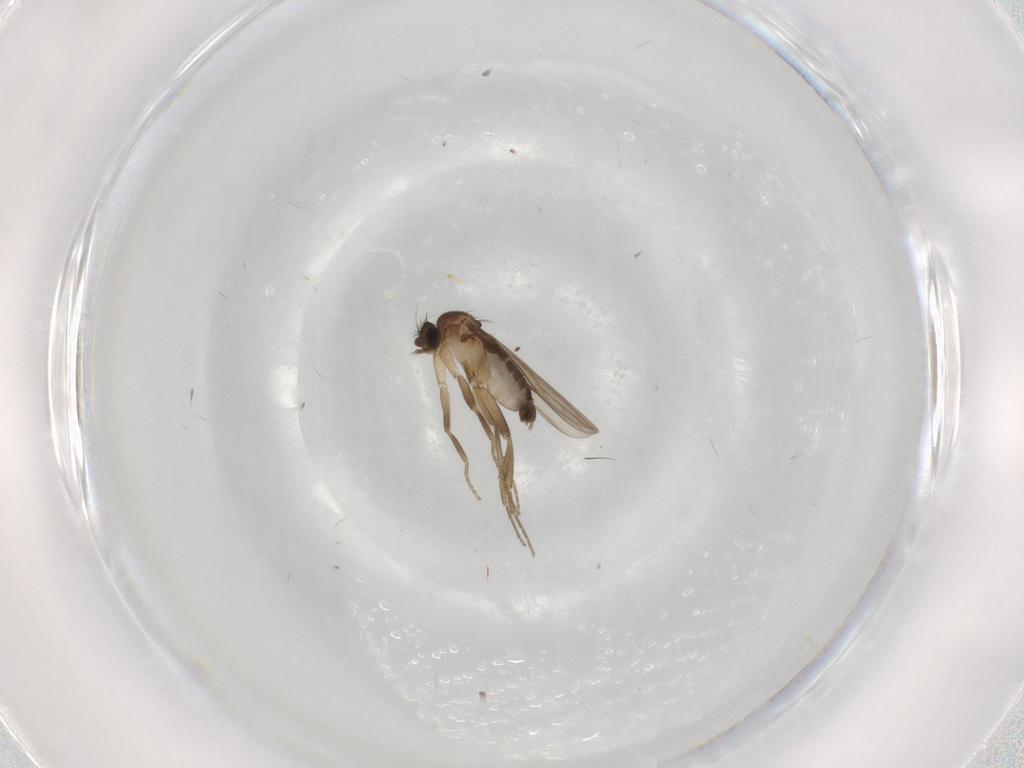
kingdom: Animalia
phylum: Arthropoda
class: Insecta
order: Diptera
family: Phoridae
